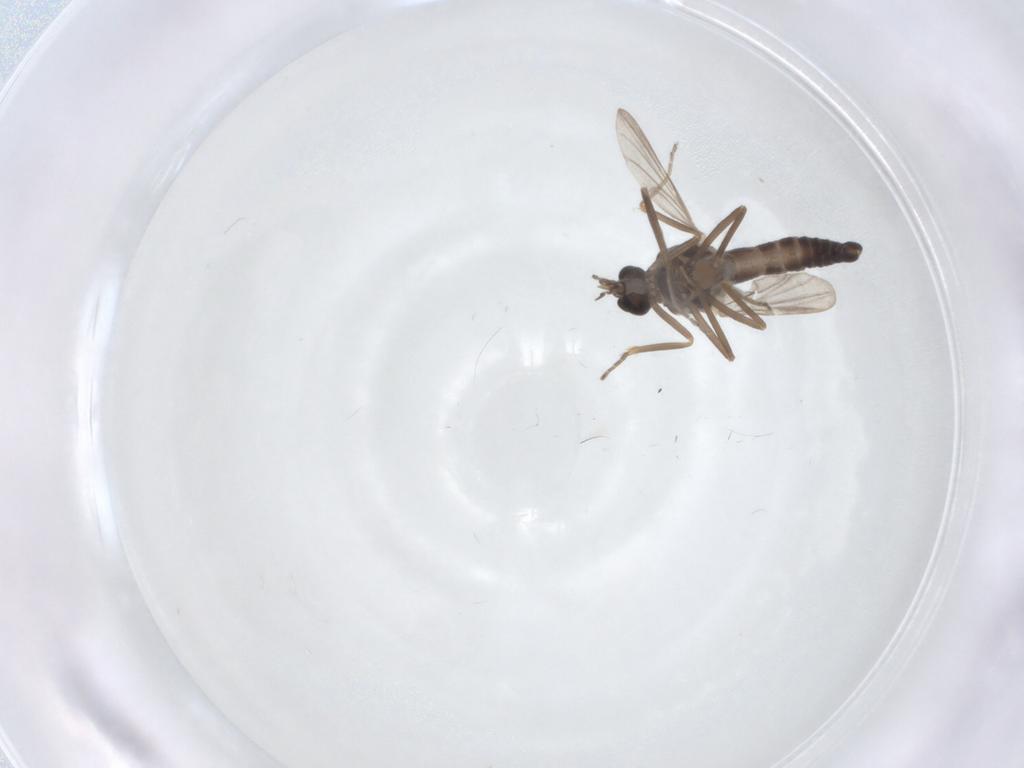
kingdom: Animalia
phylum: Arthropoda
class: Insecta
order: Diptera
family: Ceratopogonidae
